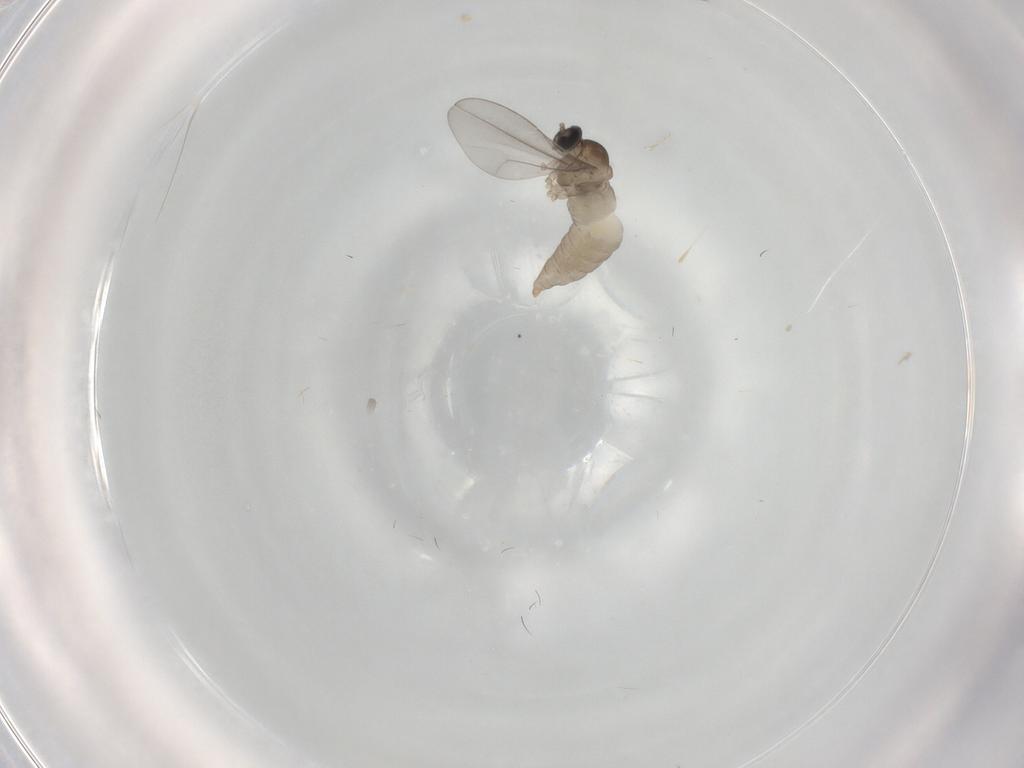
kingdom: Animalia
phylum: Arthropoda
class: Insecta
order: Diptera
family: Cecidomyiidae
